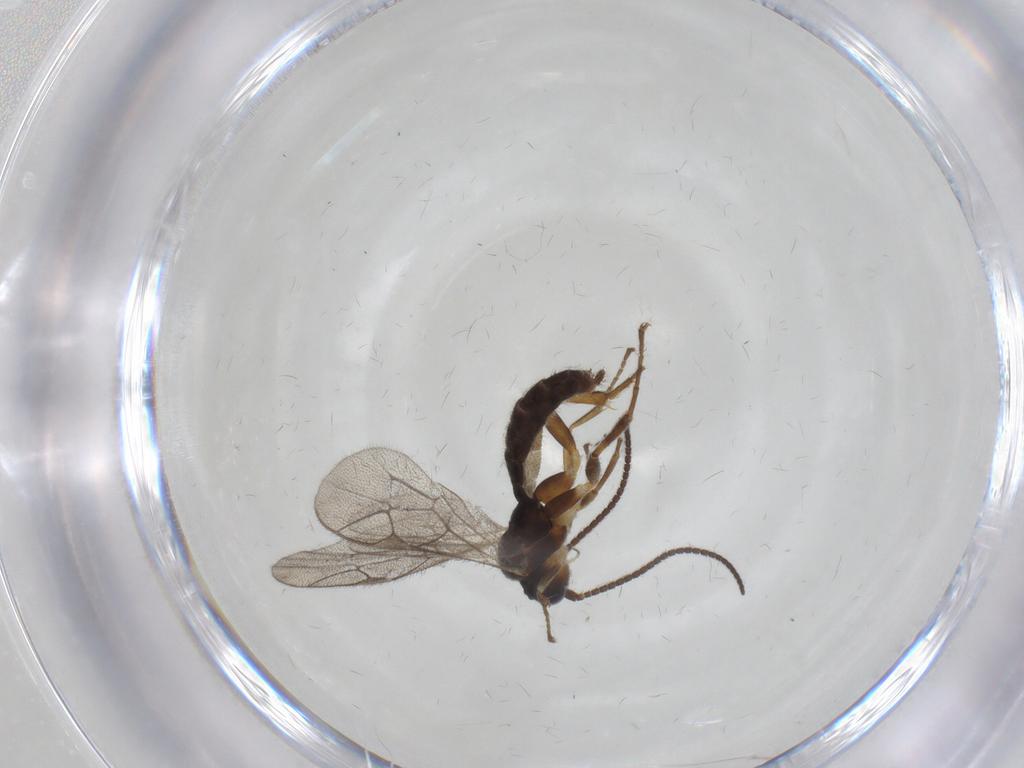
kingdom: Animalia
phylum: Arthropoda
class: Insecta
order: Hymenoptera
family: Ichneumonidae
